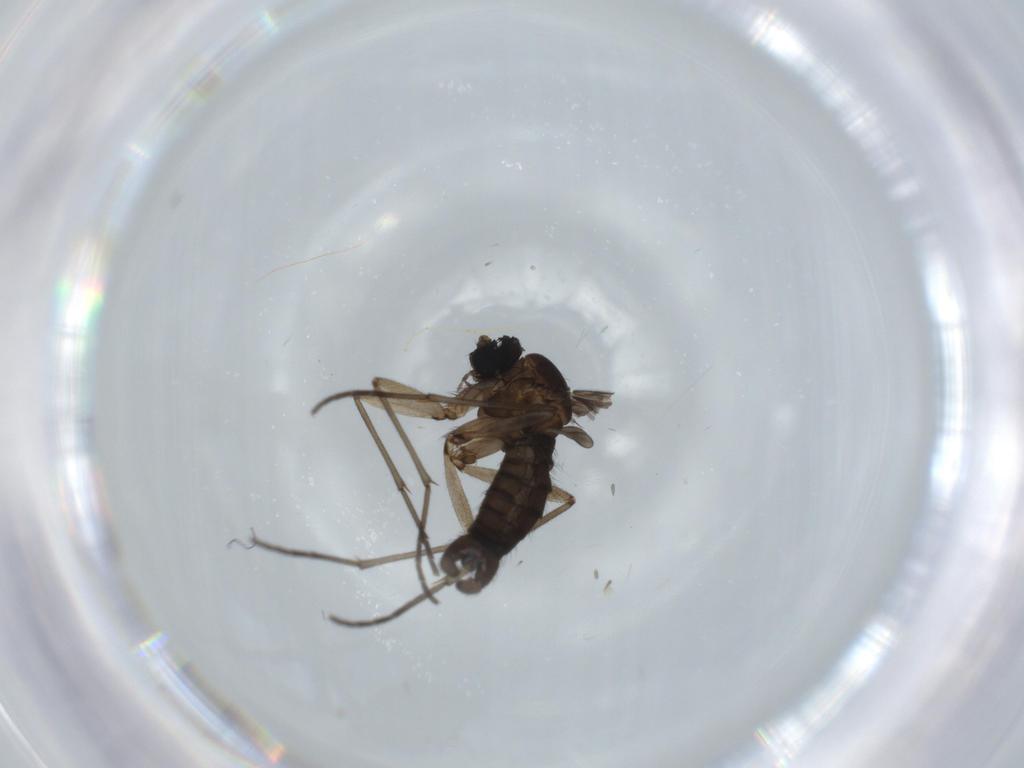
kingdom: Animalia
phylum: Arthropoda
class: Insecta
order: Diptera
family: Sciaridae
